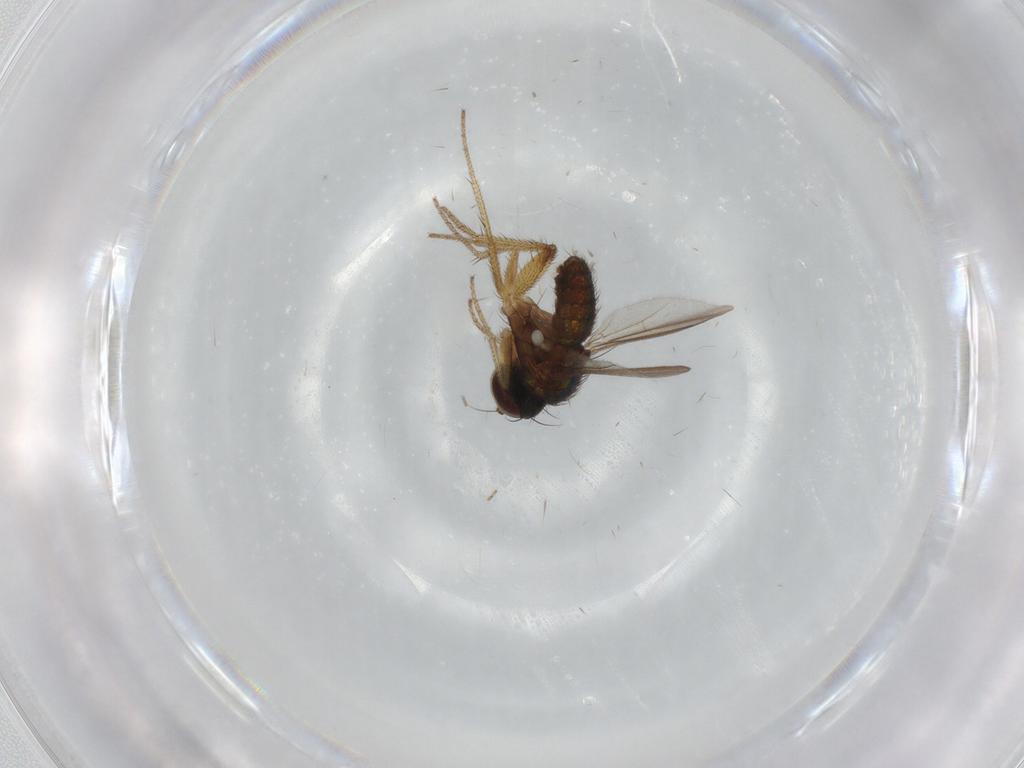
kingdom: Animalia
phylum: Arthropoda
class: Insecta
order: Diptera
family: Dolichopodidae
